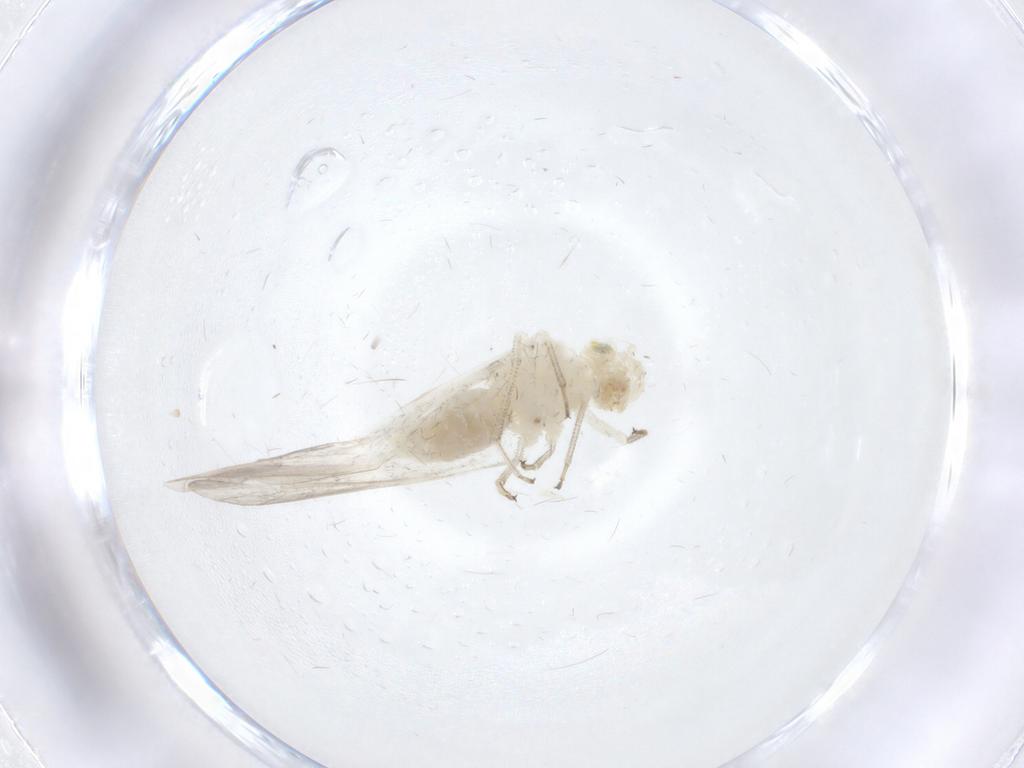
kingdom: Animalia
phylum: Arthropoda
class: Insecta
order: Psocodea
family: Caeciliusidae
